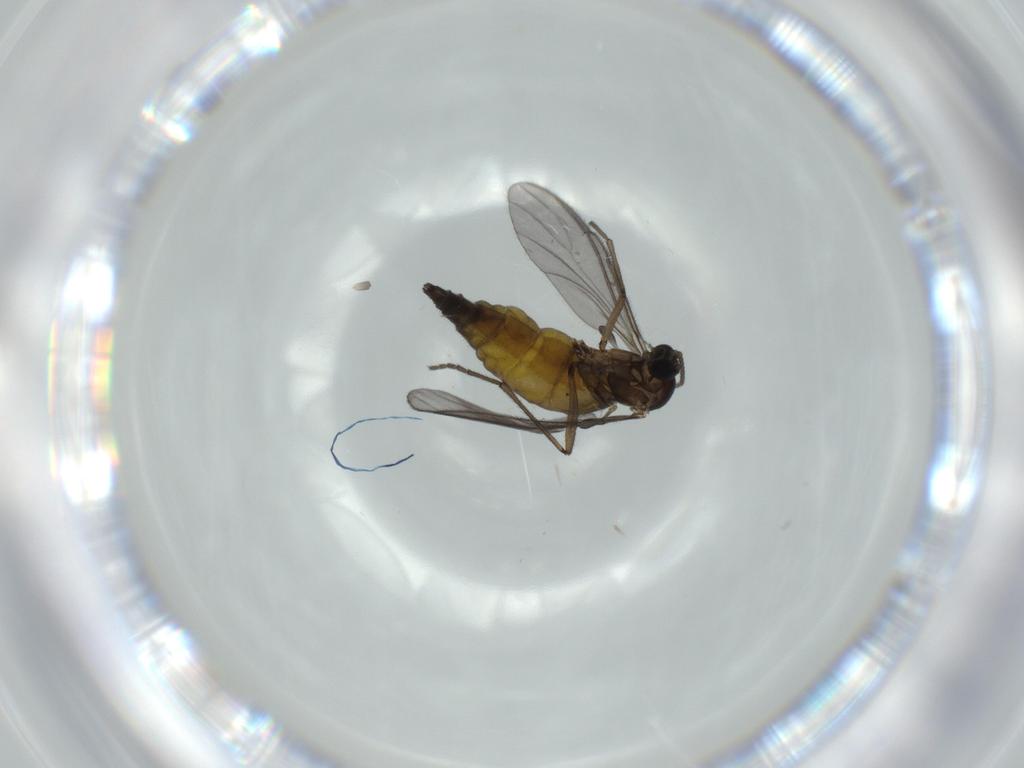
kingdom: Animalia
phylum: Arthropoda
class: Insecta
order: Diptera
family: Sciaridae
